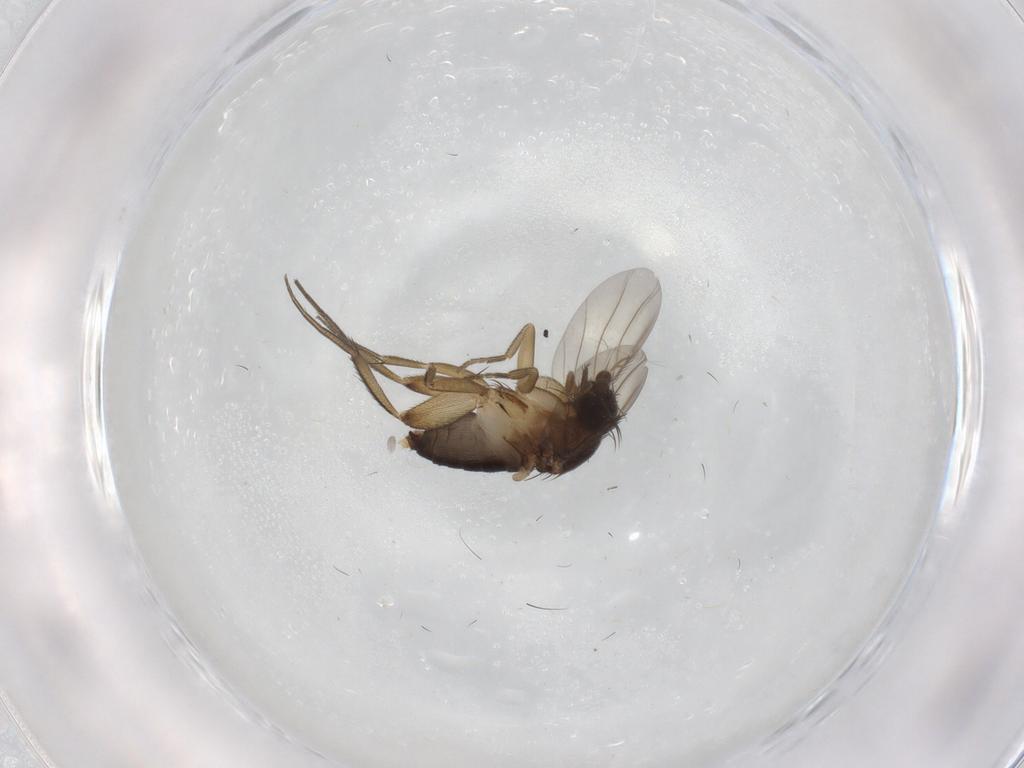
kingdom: Animalia
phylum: Arthropoda
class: Insecta
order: Diptera
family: Phoridae
